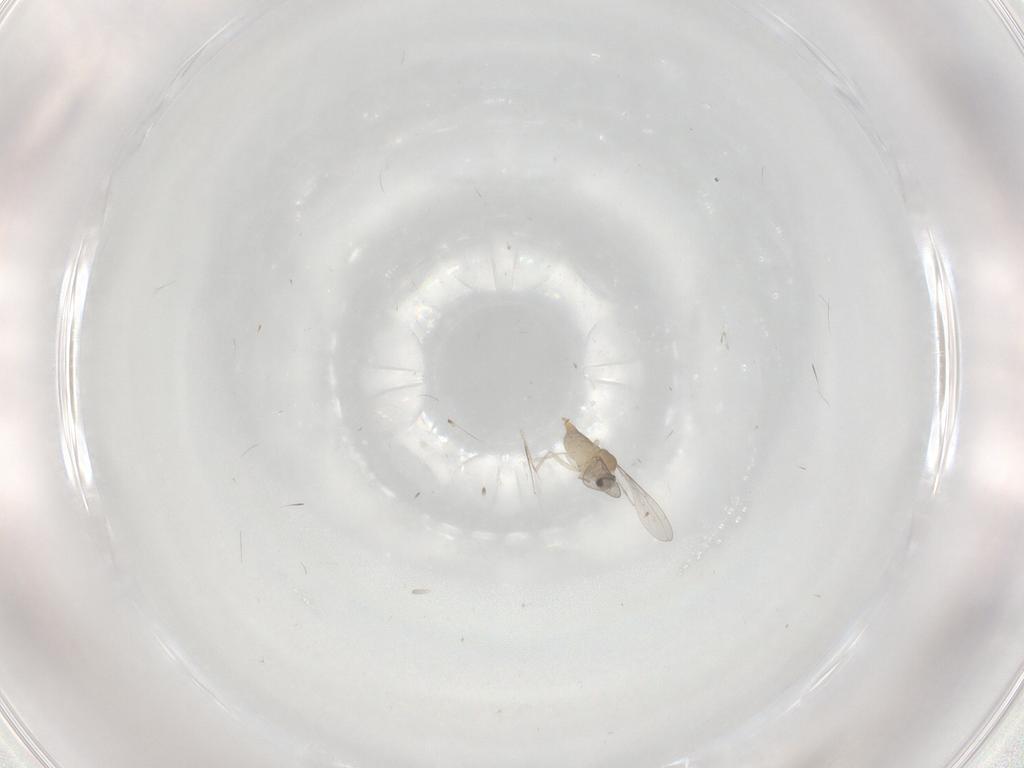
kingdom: Animalia
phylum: Arthropoda
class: Insecta
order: Diptera
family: Cecidomyiidae
